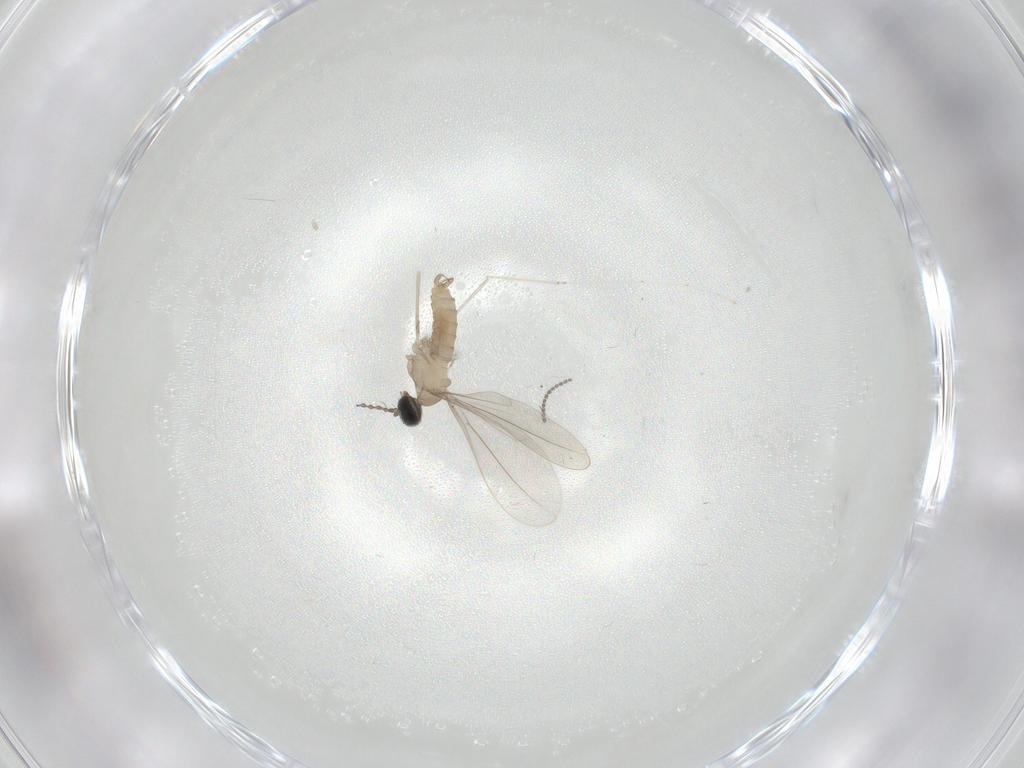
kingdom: Animalia
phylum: Arthropoda
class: Insecta
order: Diptera
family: Cecidomyiidae
